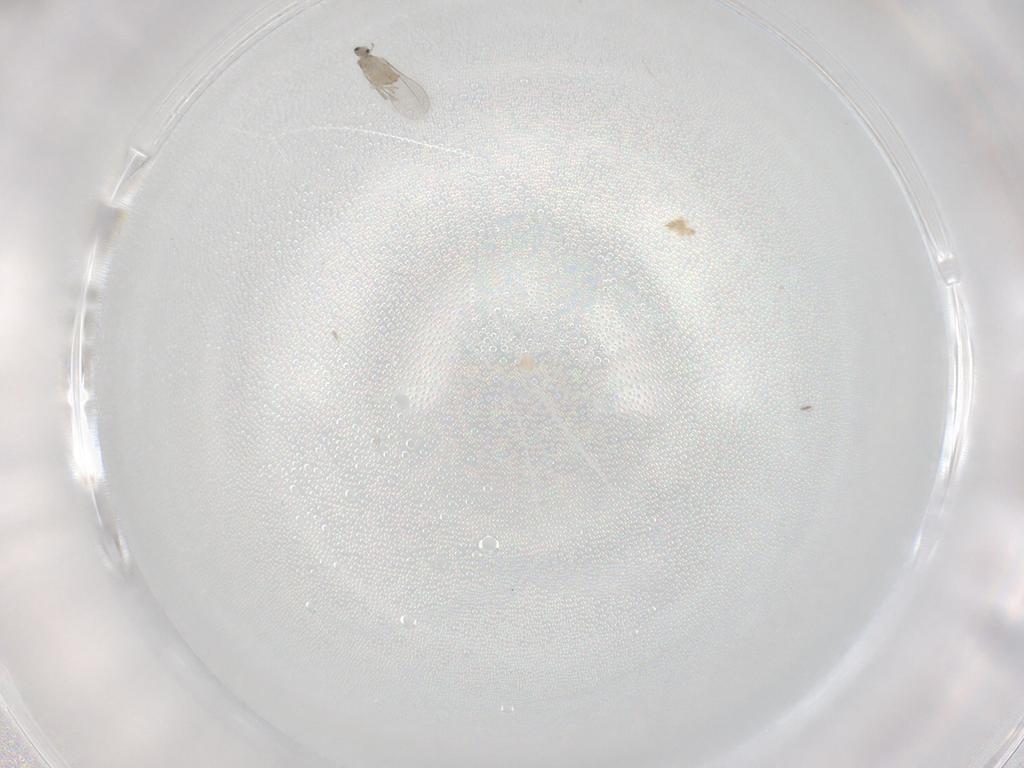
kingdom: Animalia
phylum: Arthropoda
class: Insecta
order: Diptera
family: Cecidomyiidae
